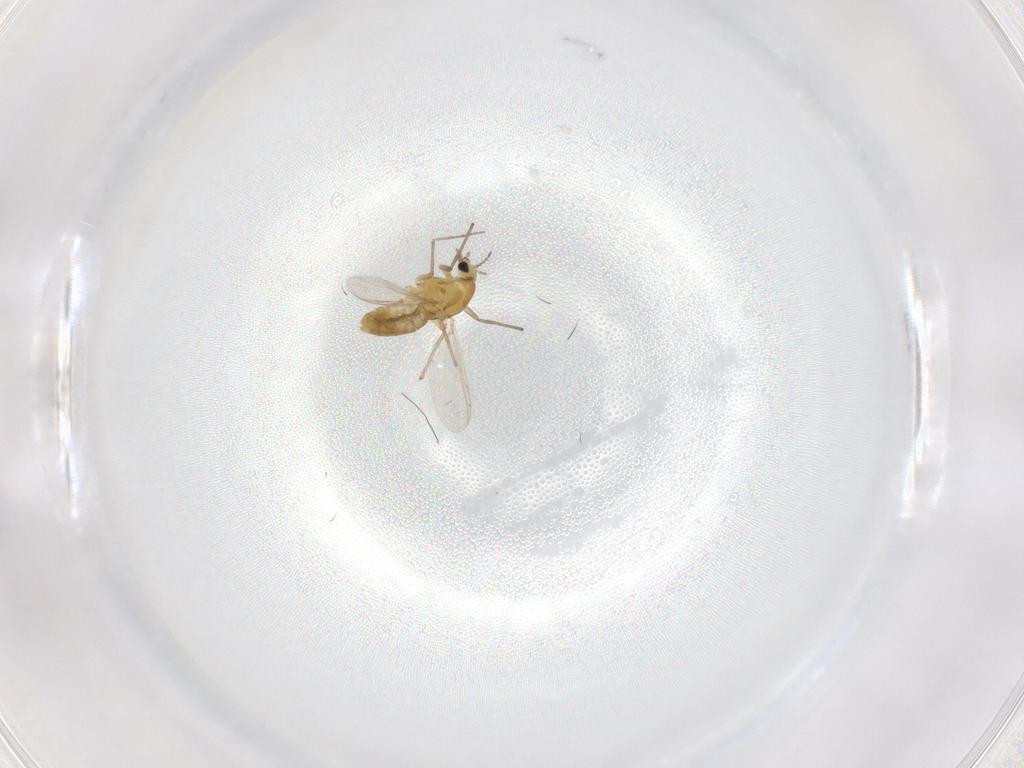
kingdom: Animalia
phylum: Arthropoda
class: Insecta
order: Diptera
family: Chironomidae
